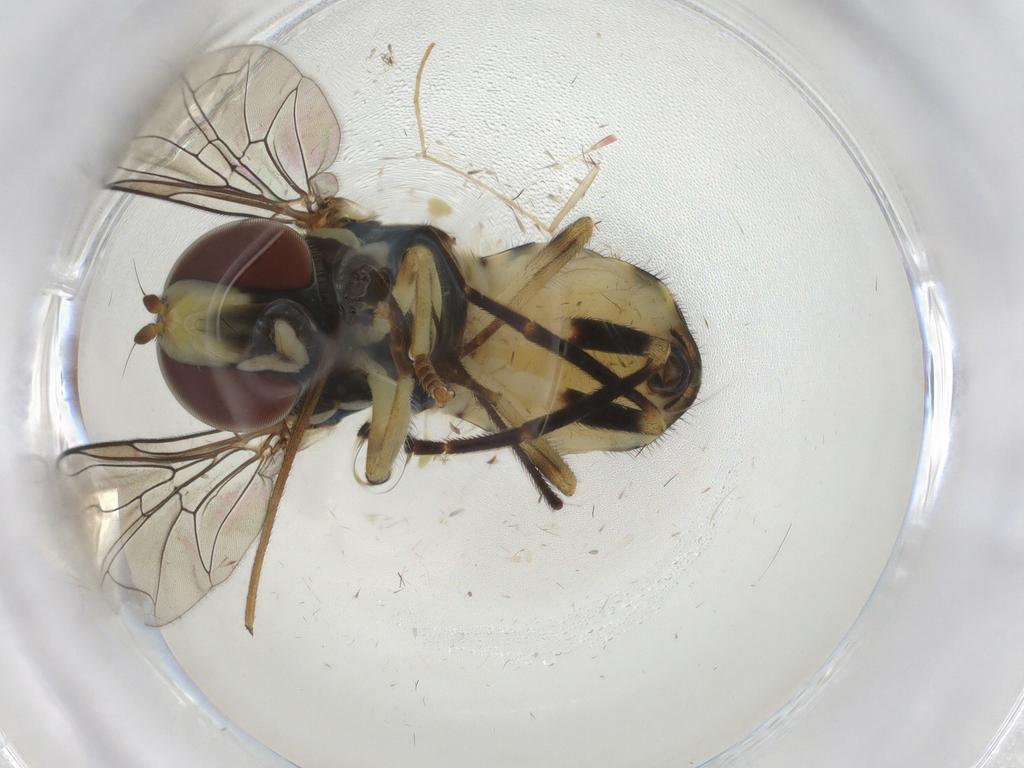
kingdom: Animalia
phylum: Arthropoda
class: Insecta
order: Diptera
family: Syrphidae
